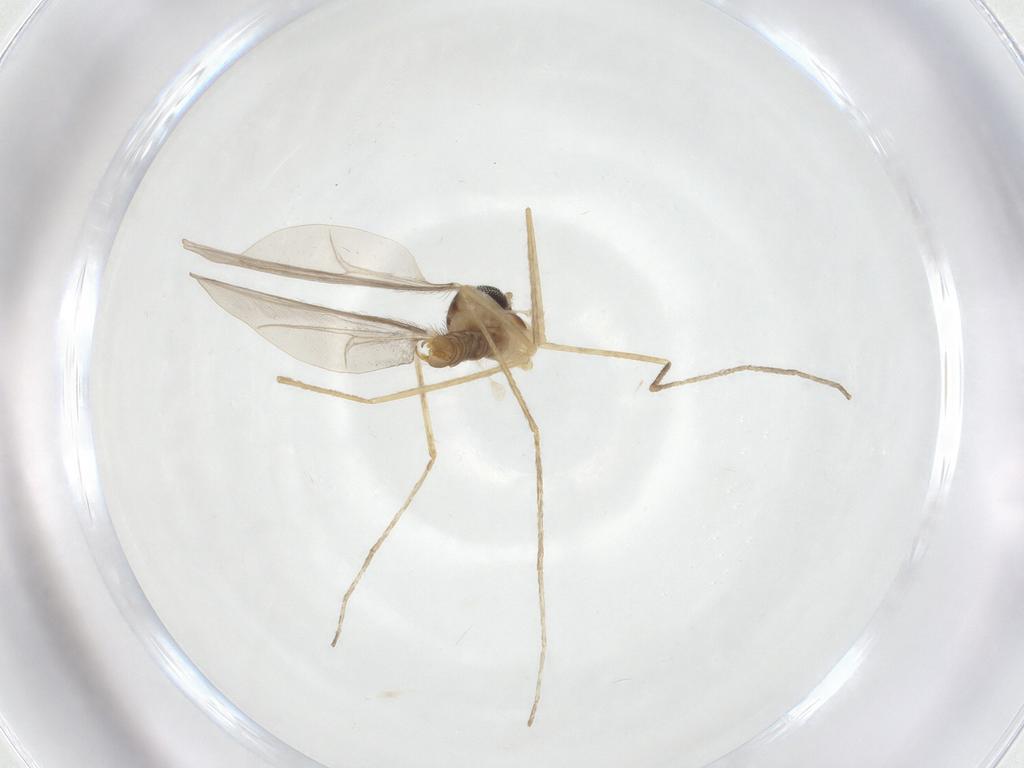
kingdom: Animalia
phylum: Arthropoda
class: Insecta
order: Diptera
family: Cecidomyiidae
